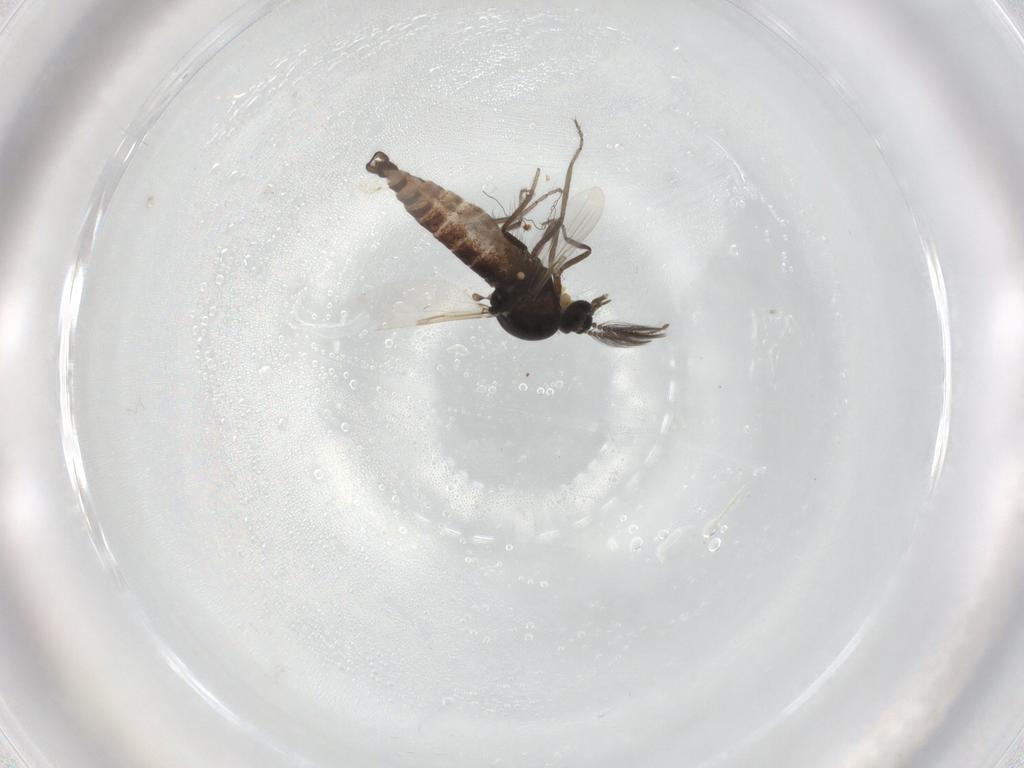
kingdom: Animalia
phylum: Arthropoda
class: Insecta
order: Diptera
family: Ceratopogonidae
